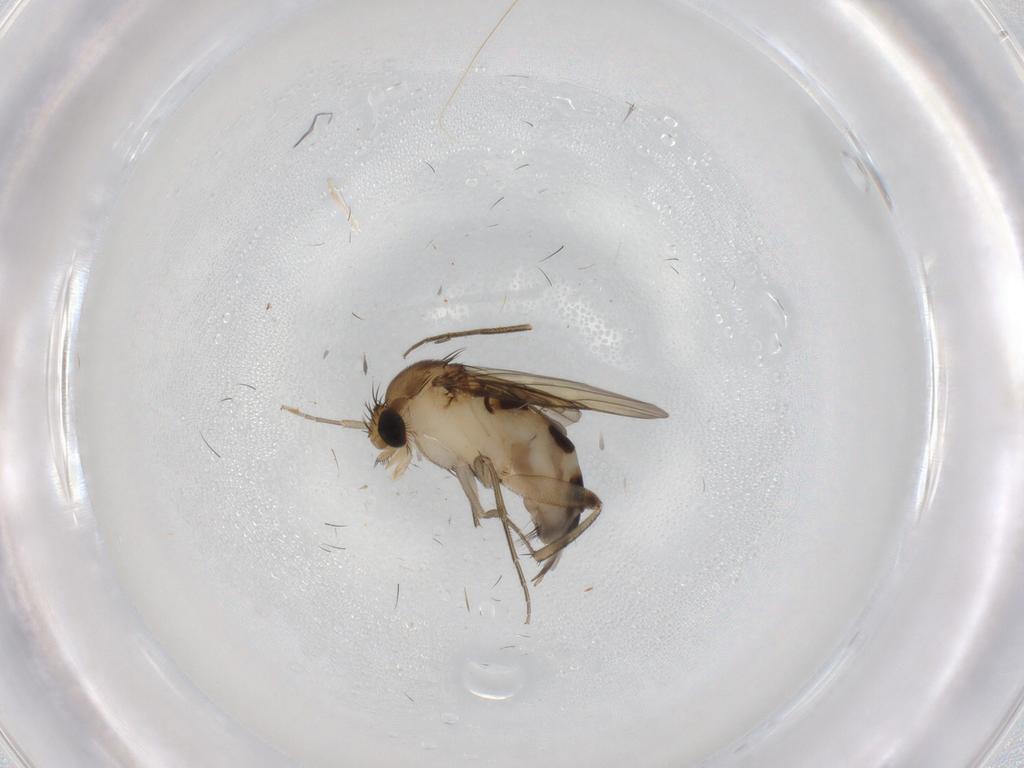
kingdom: Animalia
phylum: Arthropoda
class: Insecta
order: Diptera
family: Phoridae
